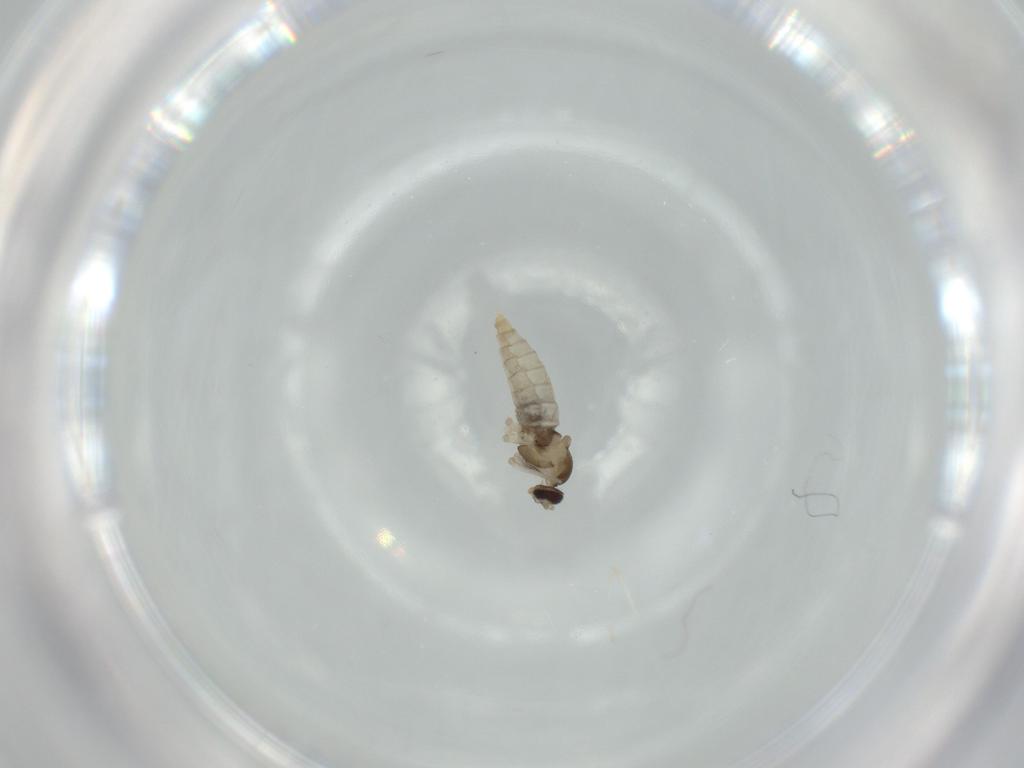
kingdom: Animalia
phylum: Arthropoda
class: Insecta
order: Diptera
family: Cecidomyiidae
